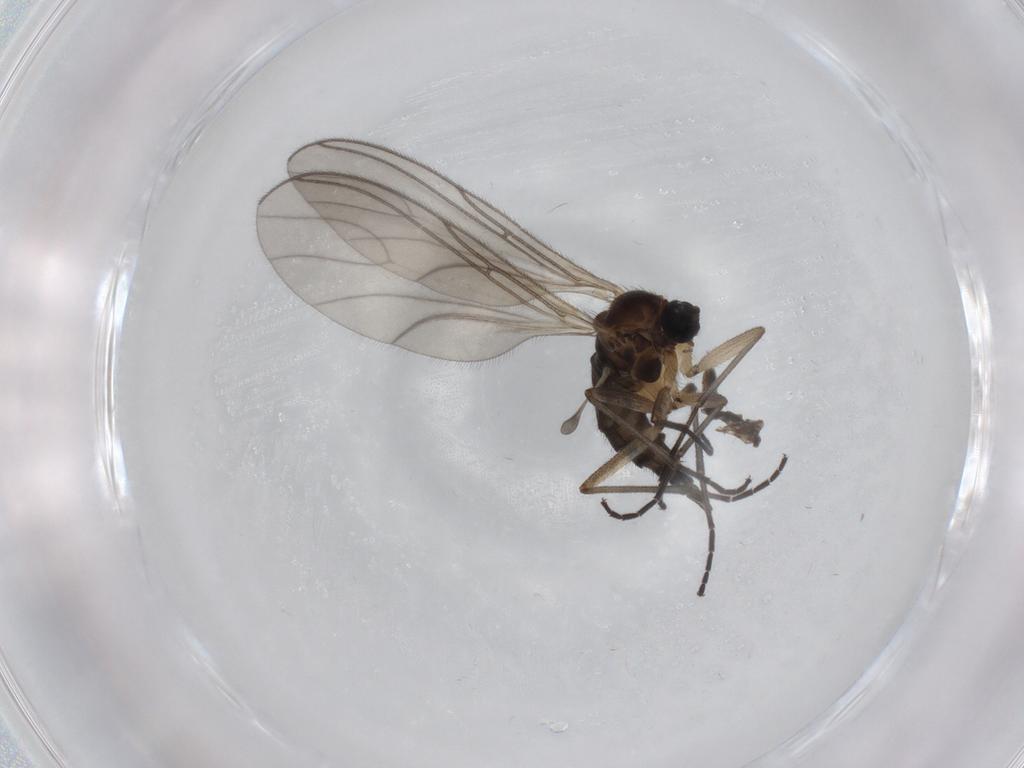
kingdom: Animalia
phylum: Arthropoda
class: Insecta
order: Diptera
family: Sciaridae
